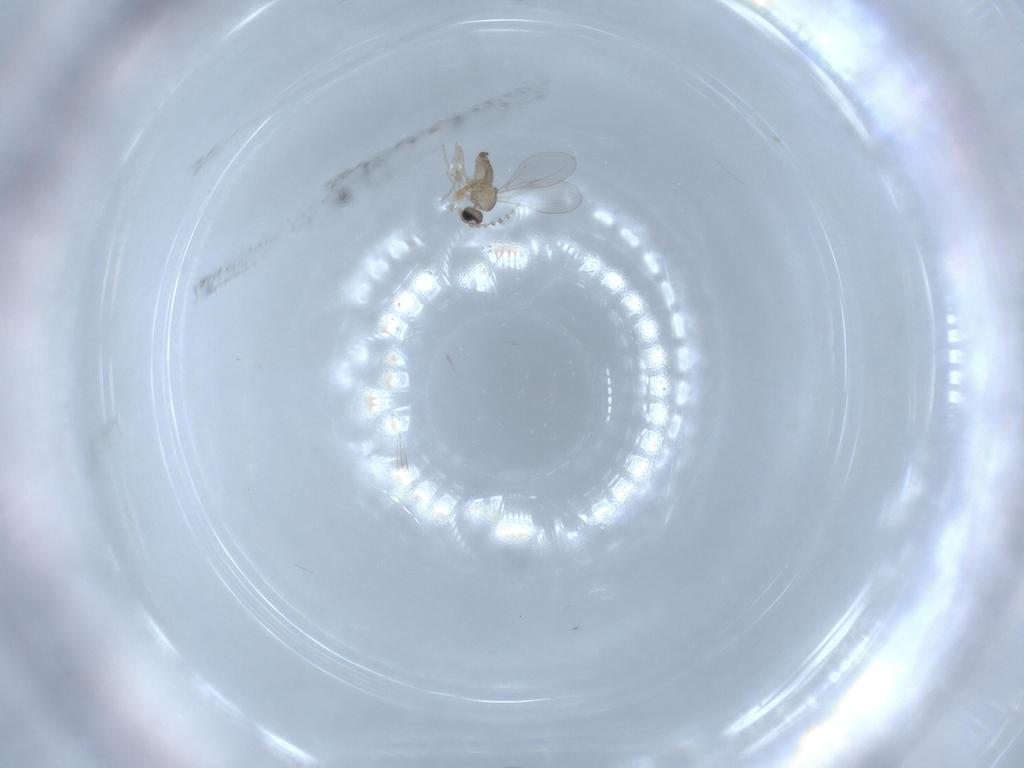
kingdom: Animalia
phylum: Arthropoda
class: Insecta
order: Diptera
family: Cecidomyiidae
